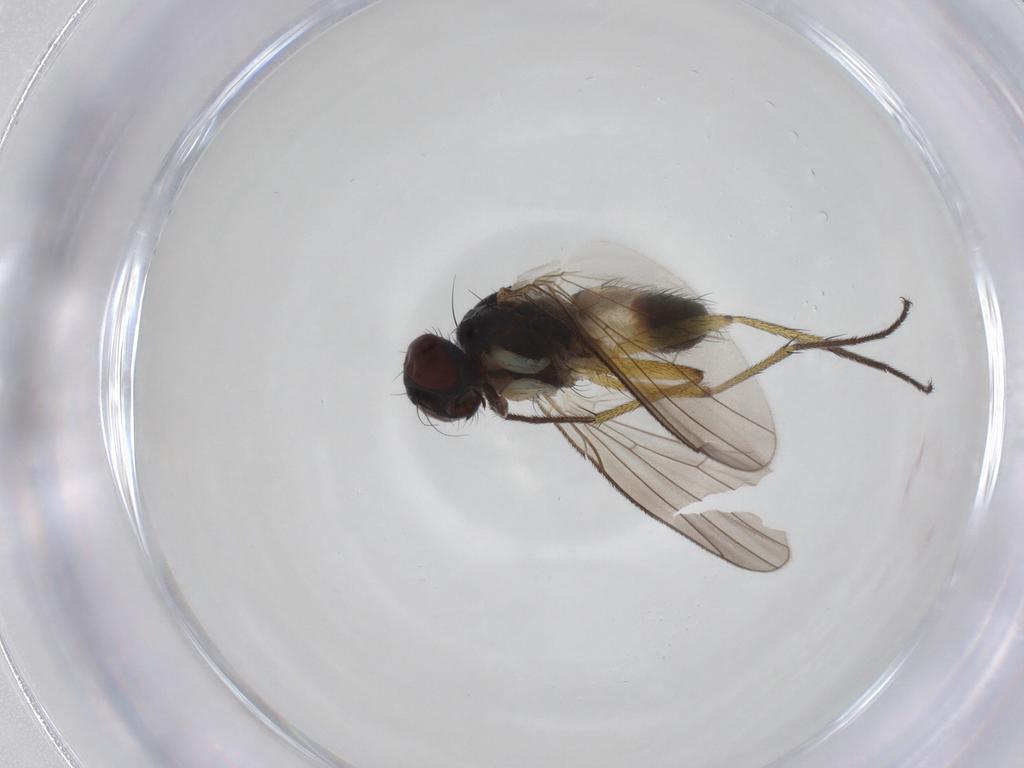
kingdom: Animalia
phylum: Arthropoda
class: Insecta
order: Diptera
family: Muscidae
